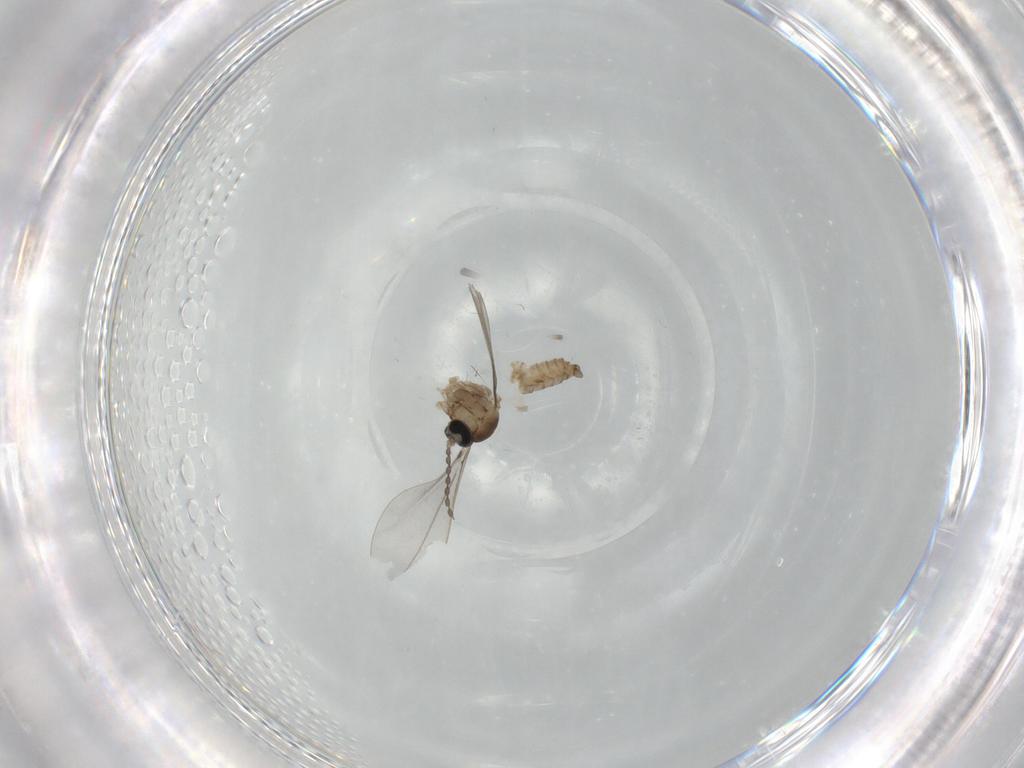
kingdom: Animalia
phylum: Arthropoda
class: Insecta
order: Diptera
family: Cecidomyiidae
